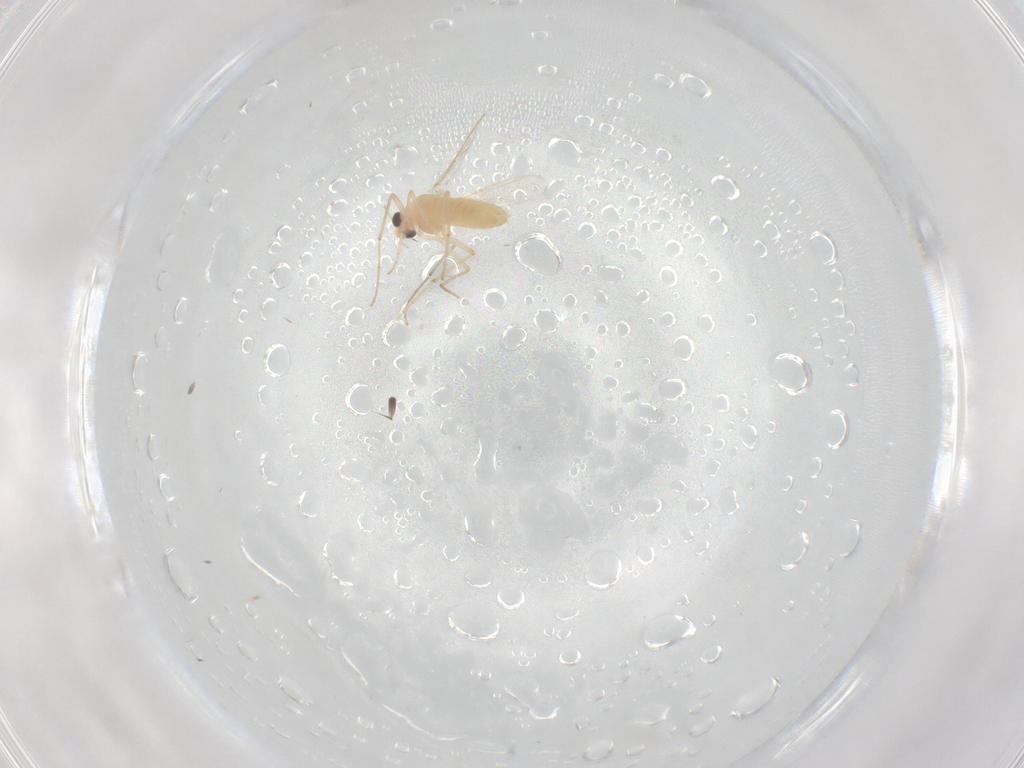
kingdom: Animalia
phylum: Arthropoda
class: Insecta
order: Diptera
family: Chironomidae
